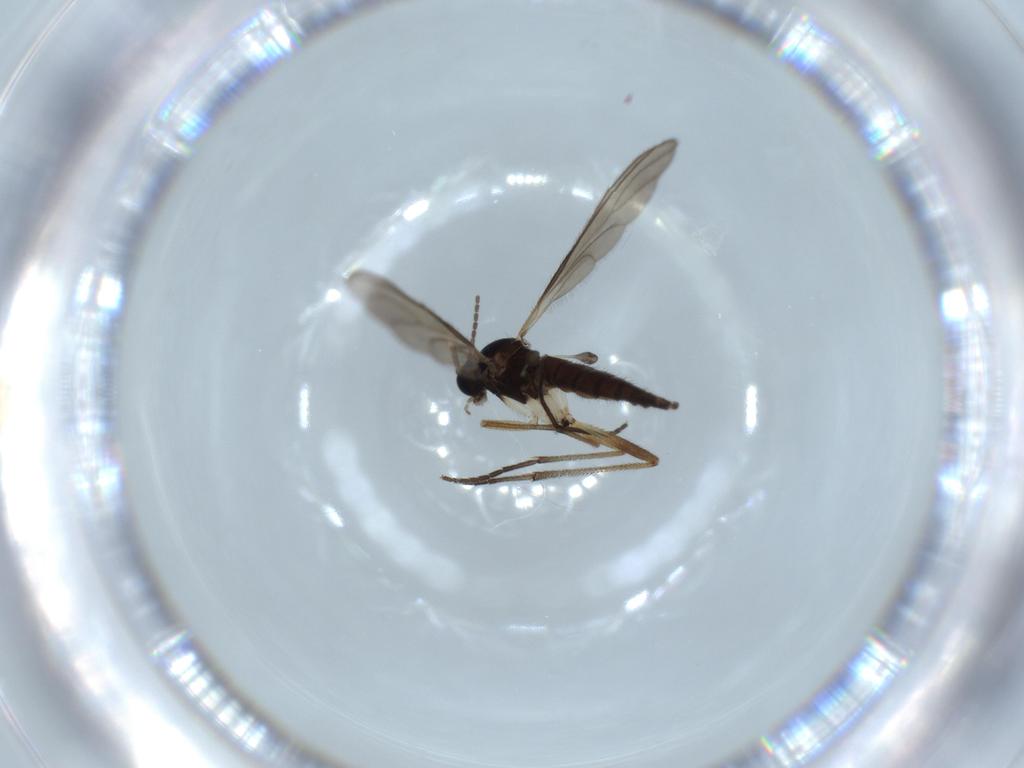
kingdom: Animalia
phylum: Arthropoda
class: Insecta
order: Diptera
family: Sciaridae
